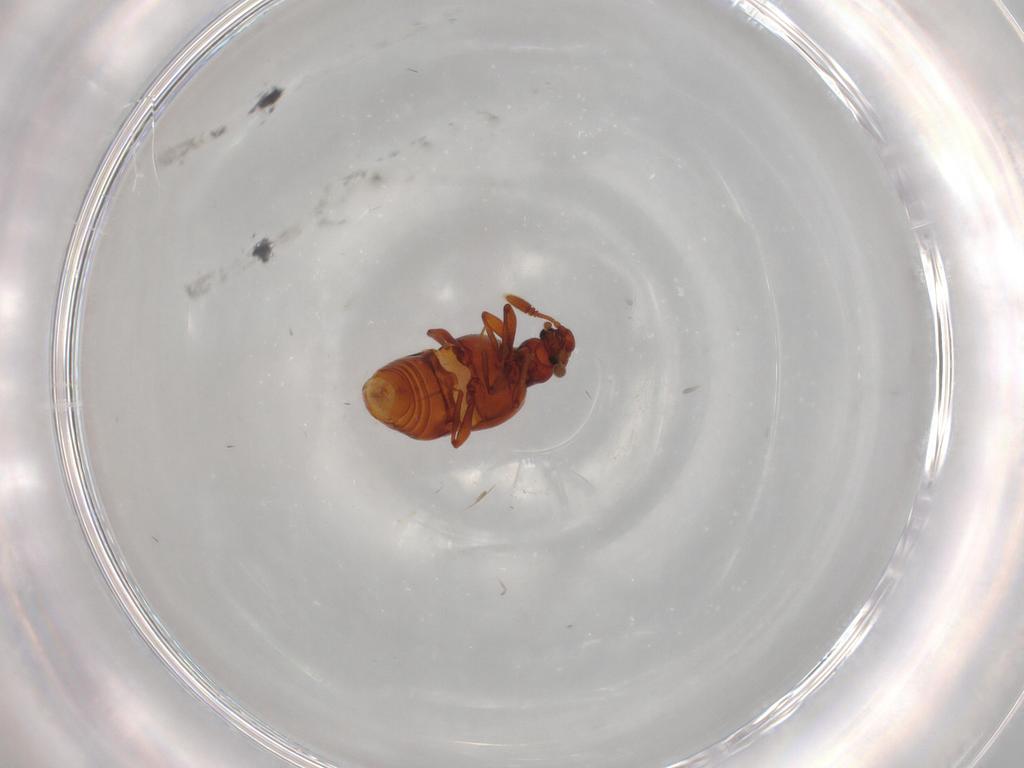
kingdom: Animalia
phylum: Arthropoda
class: Insecta
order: Coleoptera
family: Staphylinidae
